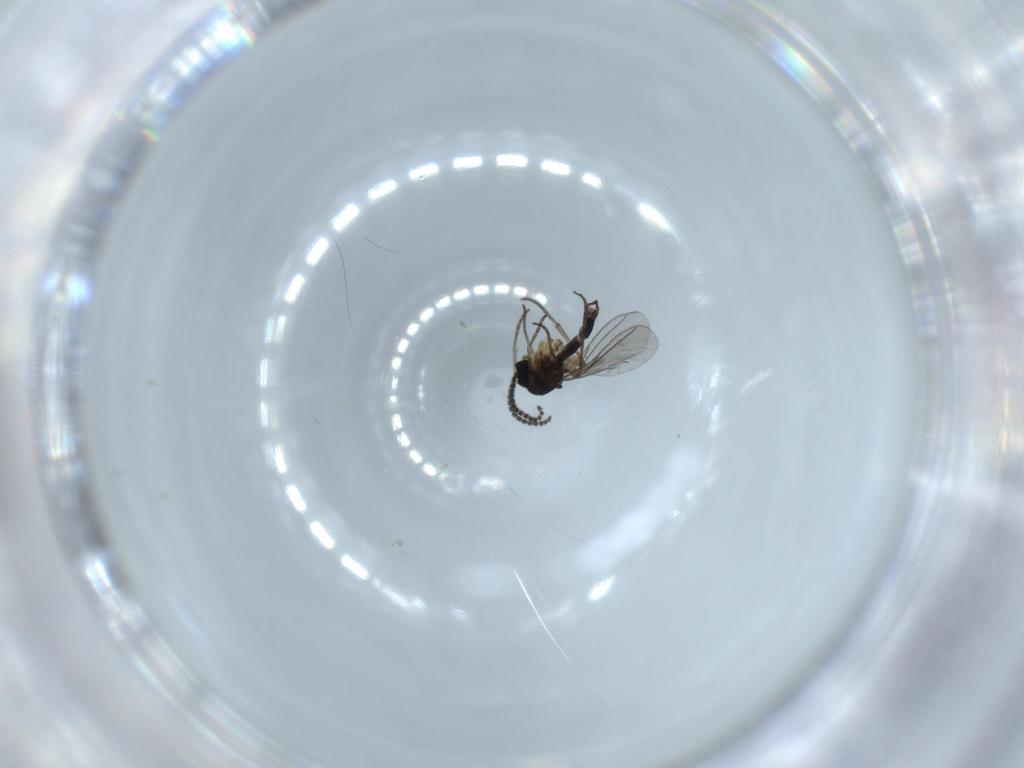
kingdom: Animalia
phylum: Arthropoda
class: Insecta
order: Diptera
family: Sciaridae
